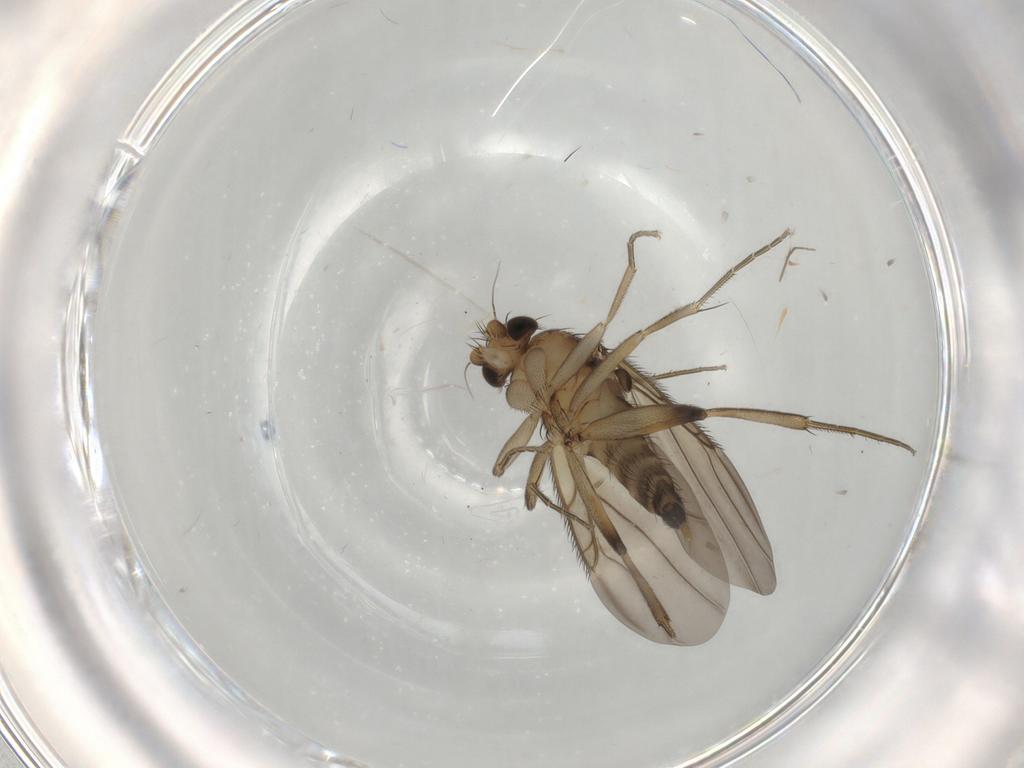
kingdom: Animalia
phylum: Arthropoda
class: Insecta
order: Diptera
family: Phoridae
